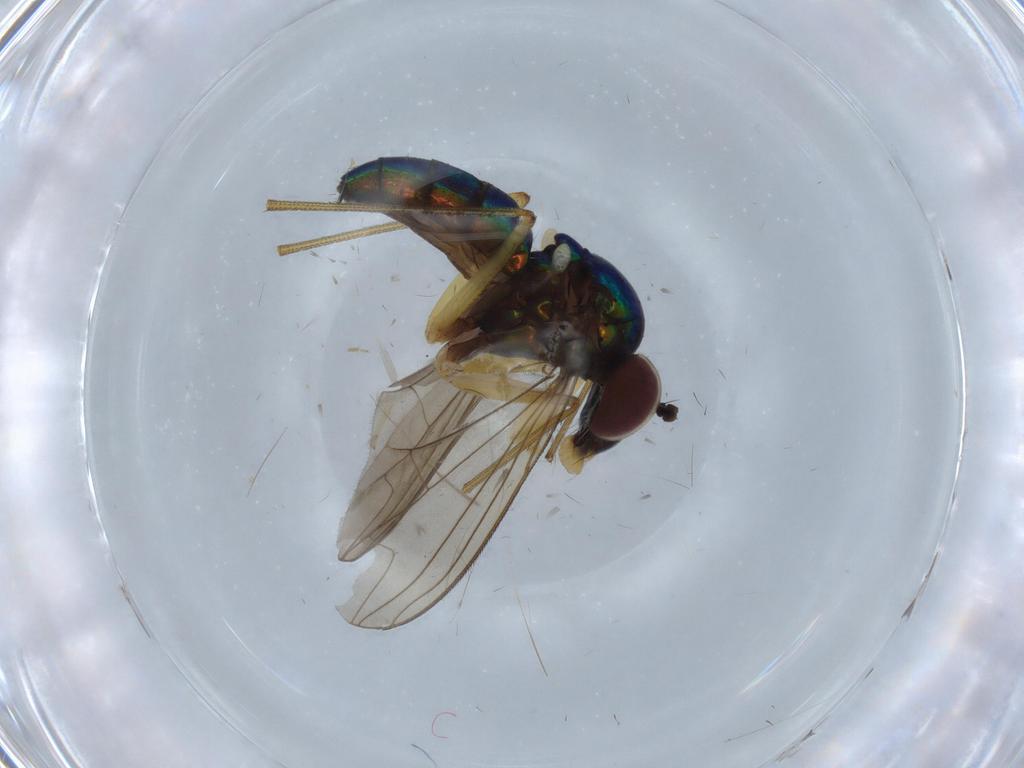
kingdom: Animalia
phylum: Arthropoda
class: Insecta
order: Diptera
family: Dolichopodidae
